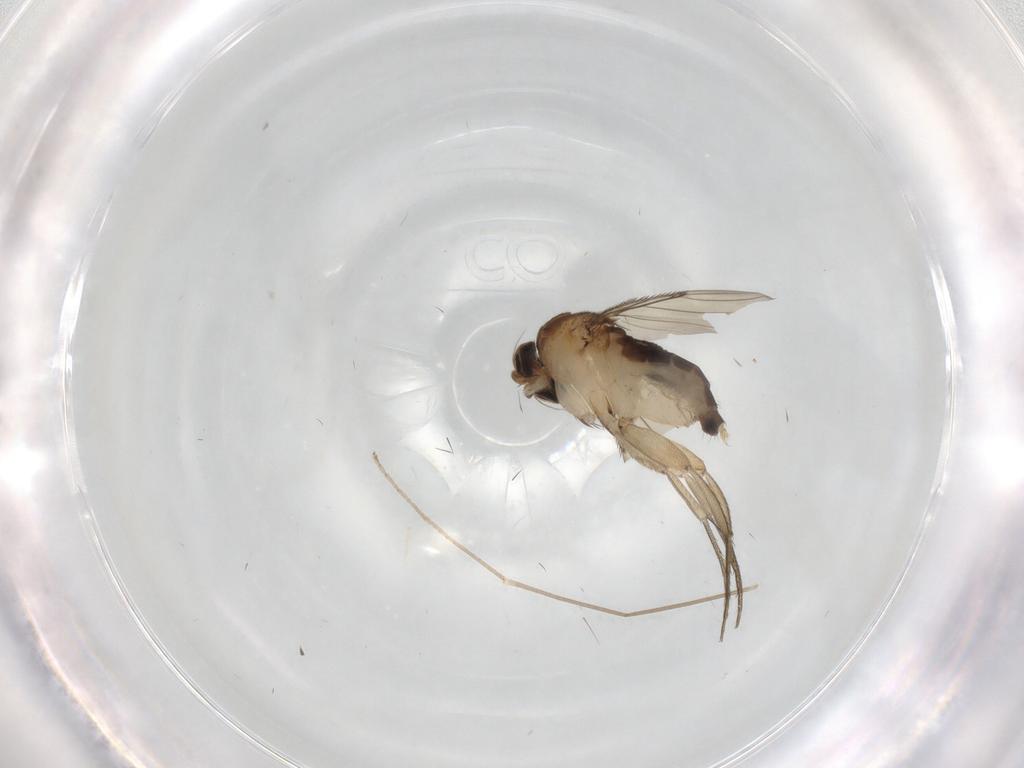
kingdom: Animalia
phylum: Arthropoda
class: Insecta
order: Diptera
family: Phoridae
